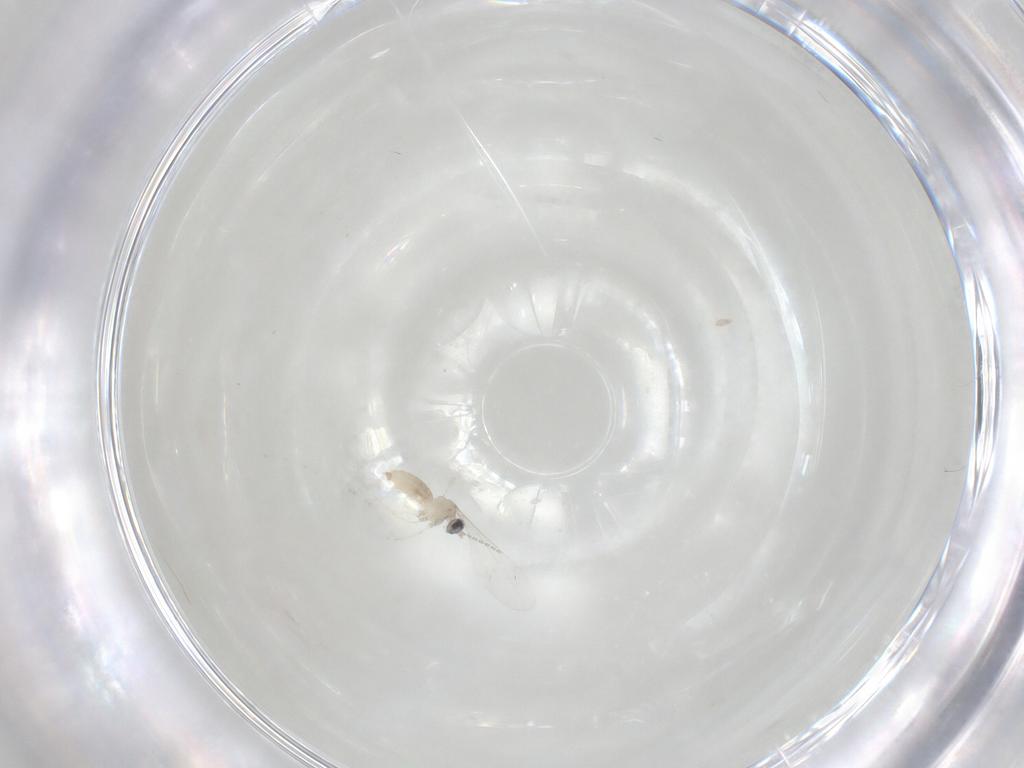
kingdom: Animalia
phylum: Arthropoda
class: Insecta
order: Diptera
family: Cecidomyiidae
